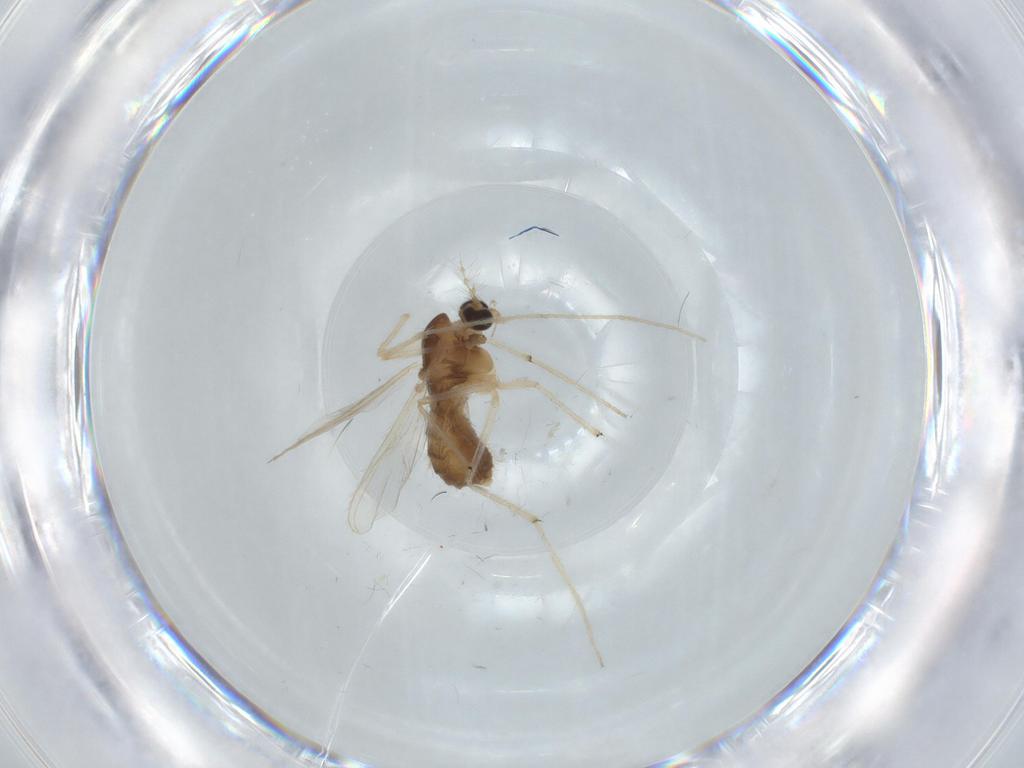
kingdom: Animalia
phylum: Arthropoda
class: Insecta
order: Diptera
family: Chironomidae
